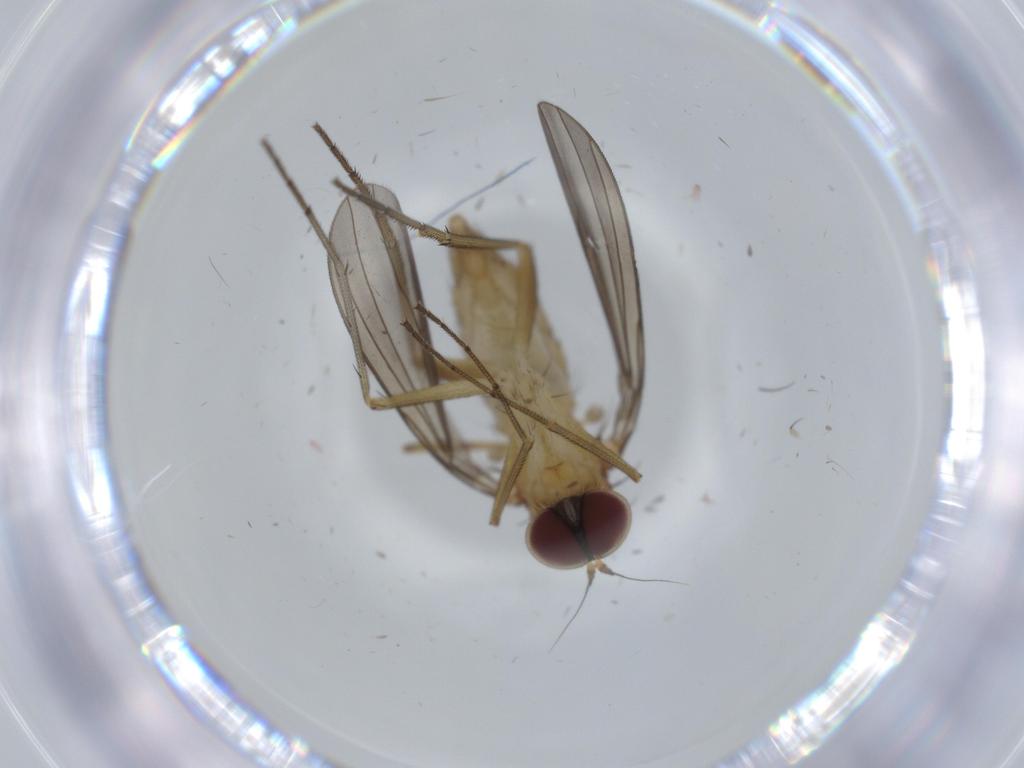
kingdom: Animalia
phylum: Arthropoda
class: Insecta
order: Diptera
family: Dolichopodidae
